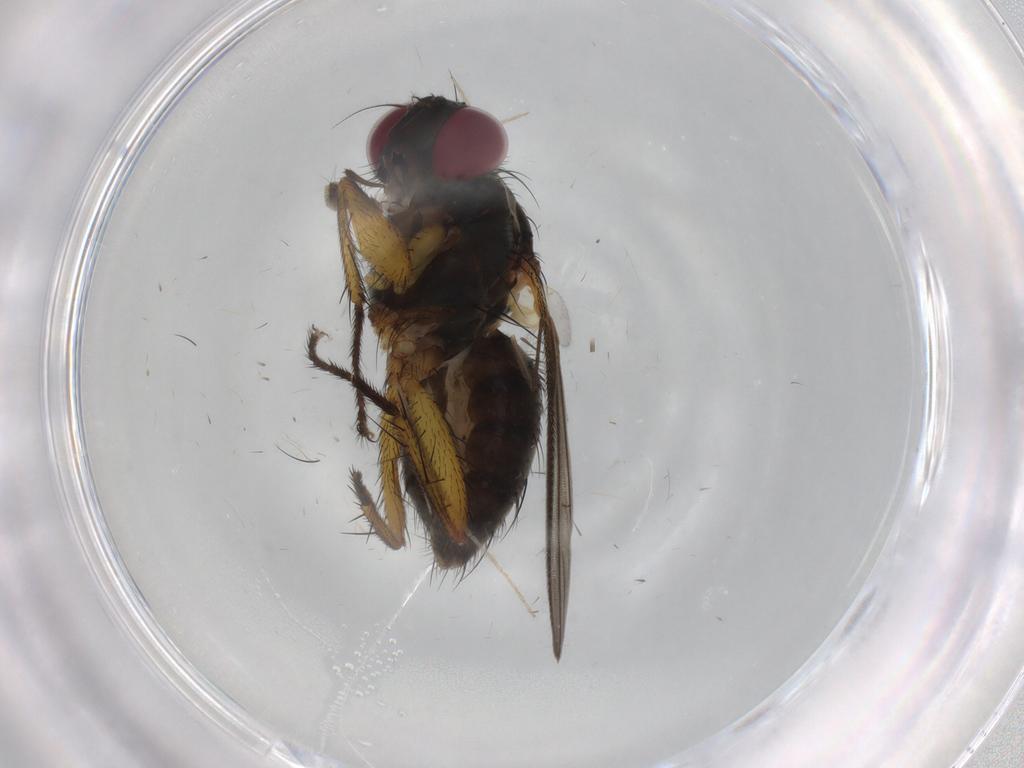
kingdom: Animalia
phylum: Arthropoda
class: Insecta
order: Diptera
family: Muscidae
